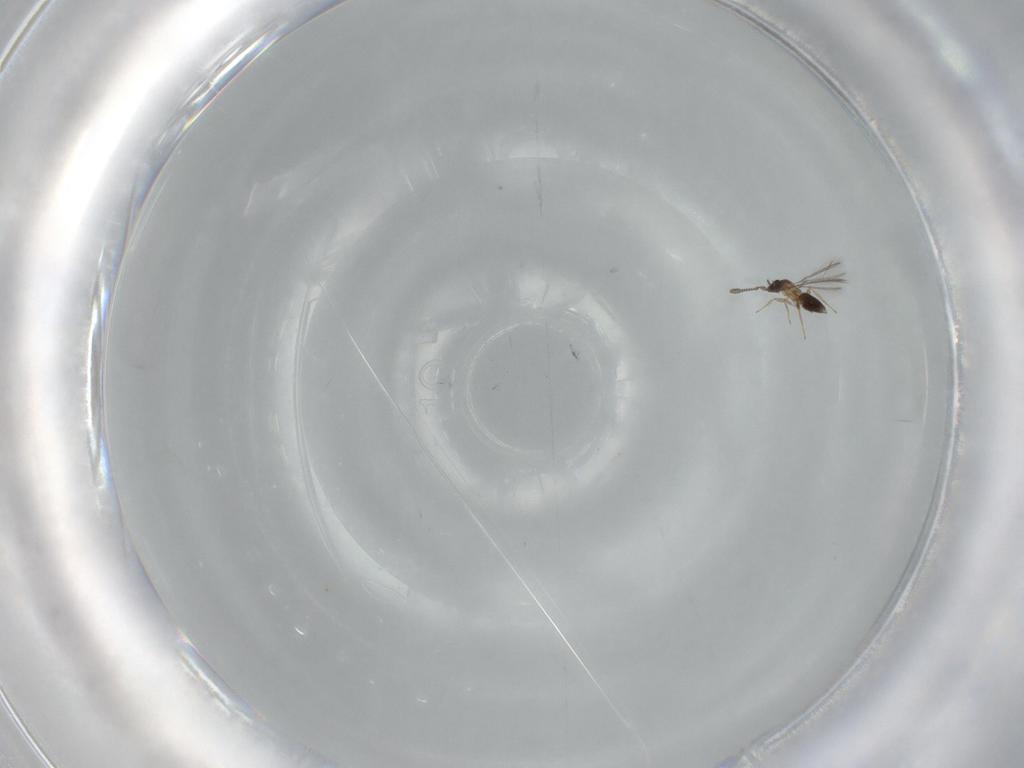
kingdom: Animalia
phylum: Arthropoda
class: Insecta
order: Hymenoptera
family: Mymaridae
